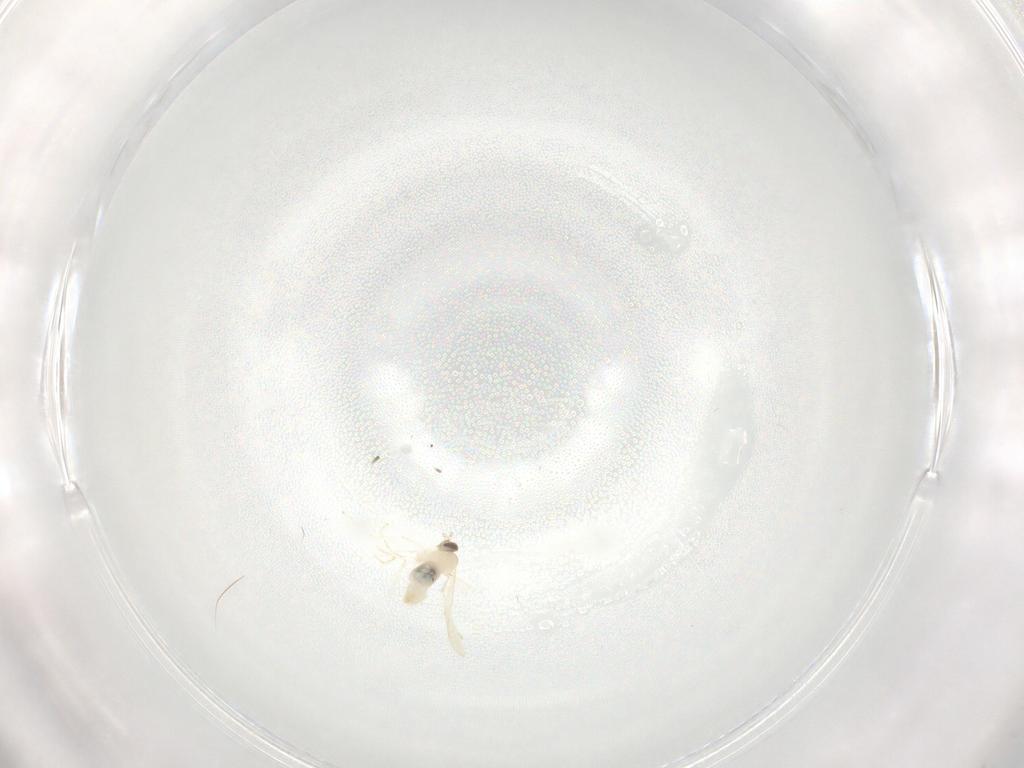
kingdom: Animalia
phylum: Arthropoda
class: Insecta
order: Diptera
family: Cecidomyiidae
